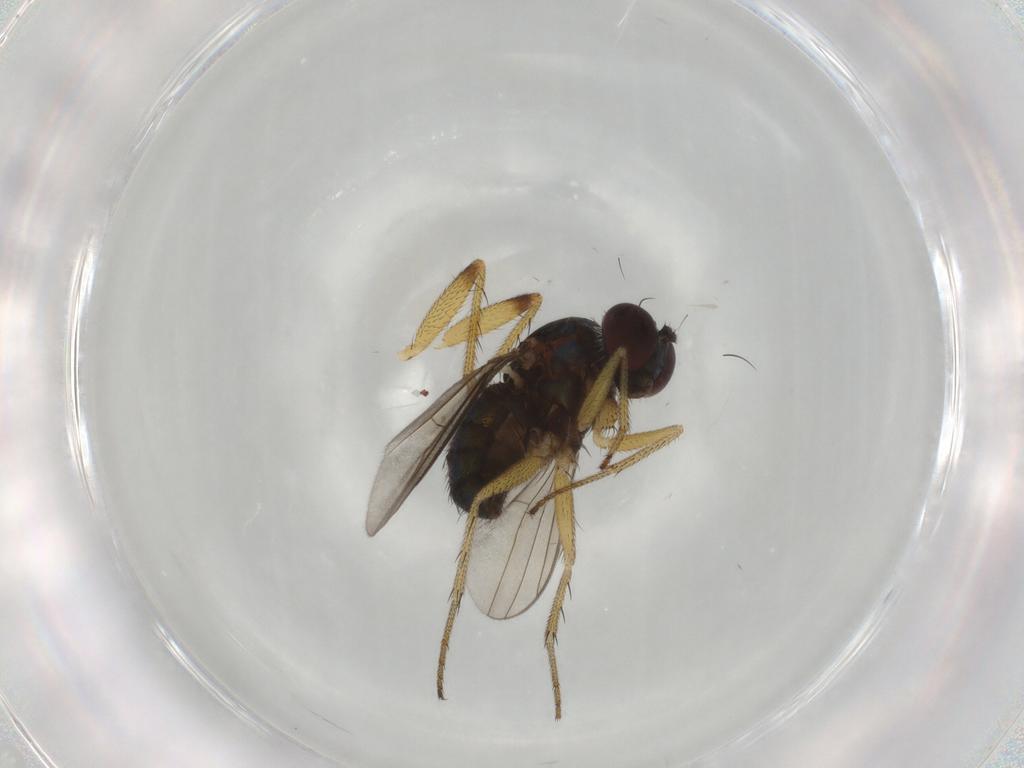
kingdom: Animalia
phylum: Arthropoda
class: Insecta
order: Diptera
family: Dolichopodidae
